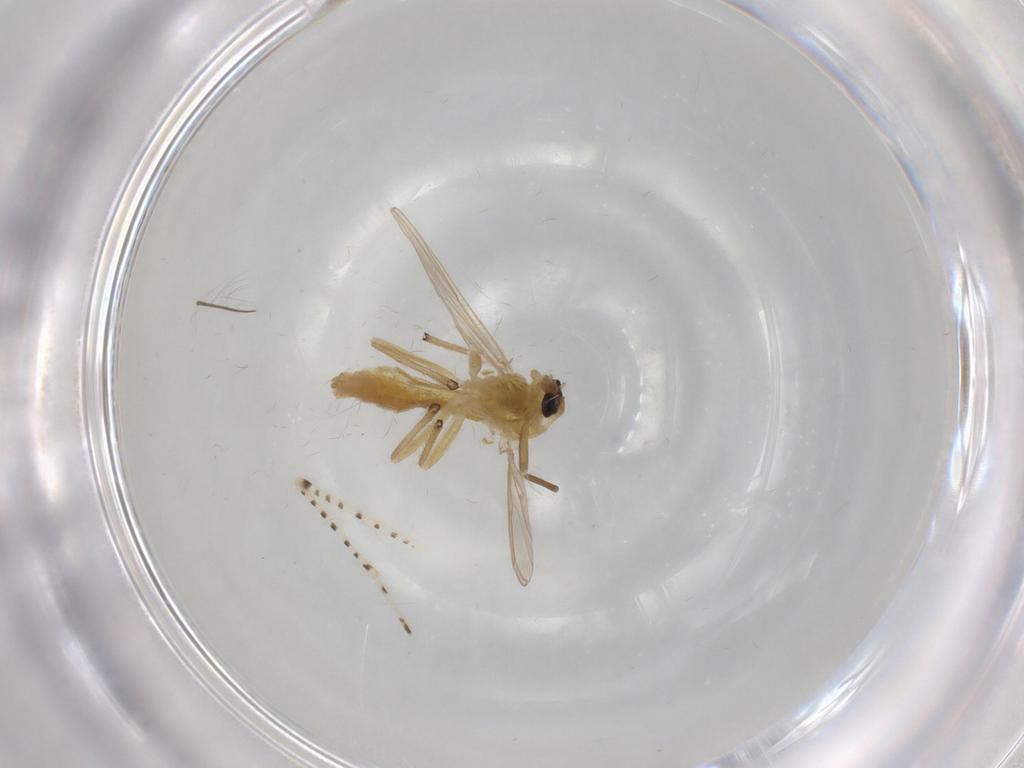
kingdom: Animalia
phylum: Arthropoda
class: Insecta
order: Diptera
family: Chironomidae
